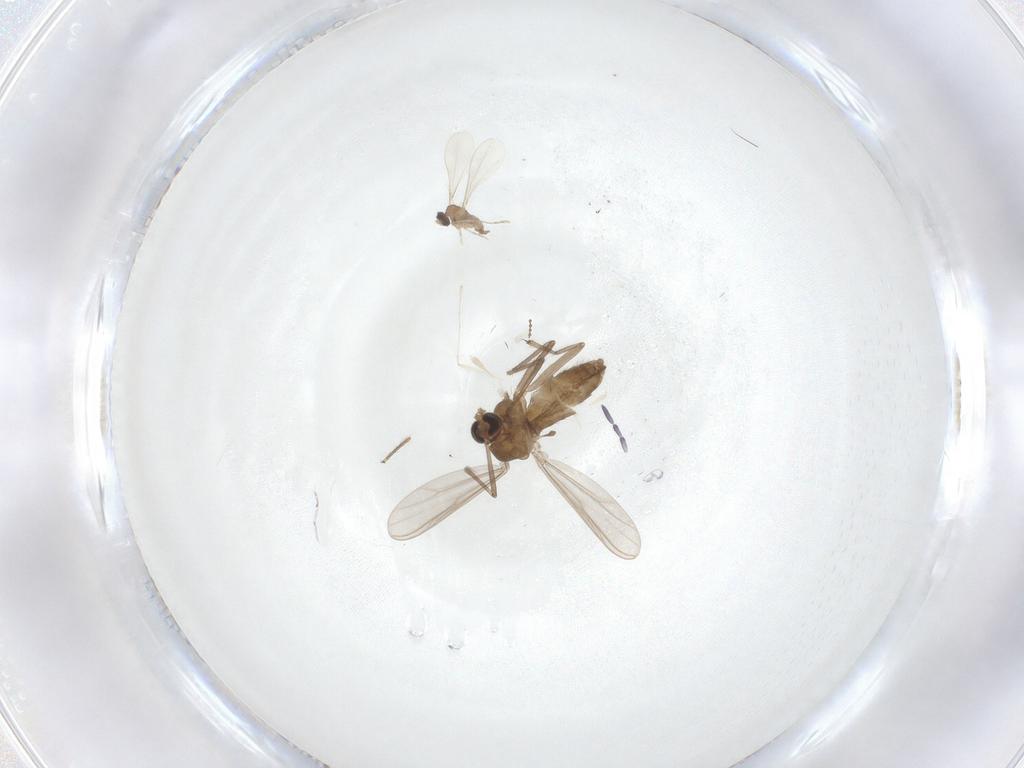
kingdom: Animalia
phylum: Arthropoda
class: Insecta
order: Diptera
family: Chironomidae
